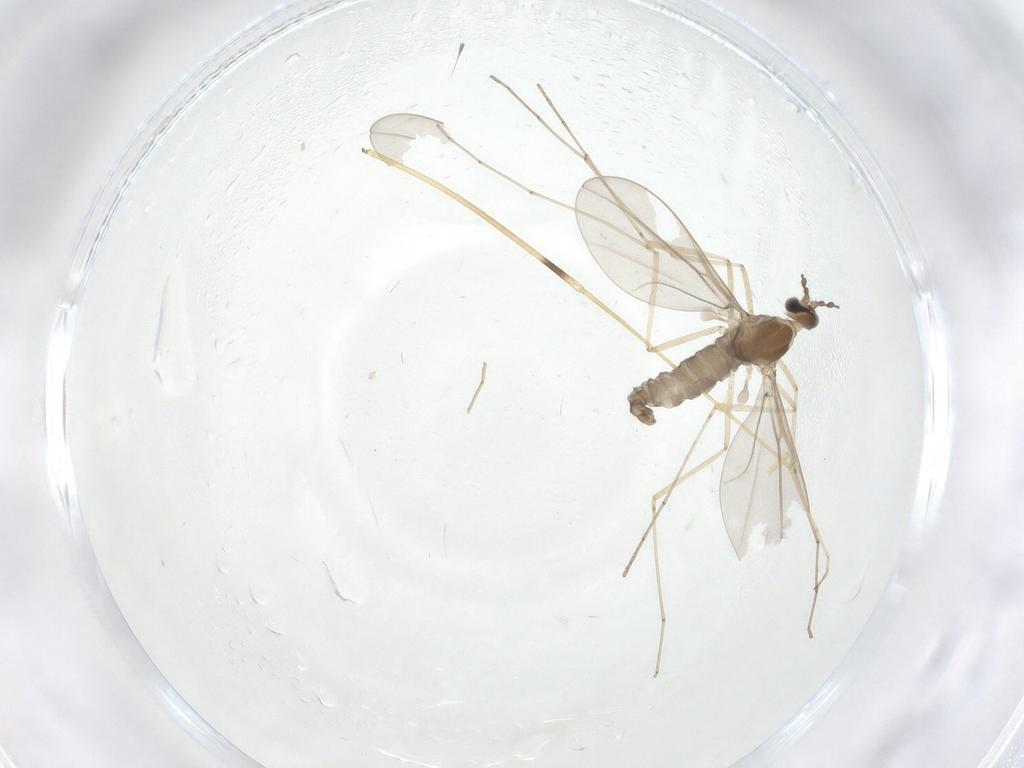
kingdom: Animalia
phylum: Arthropoda
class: Insecta
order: Diptera
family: Limoniidae
